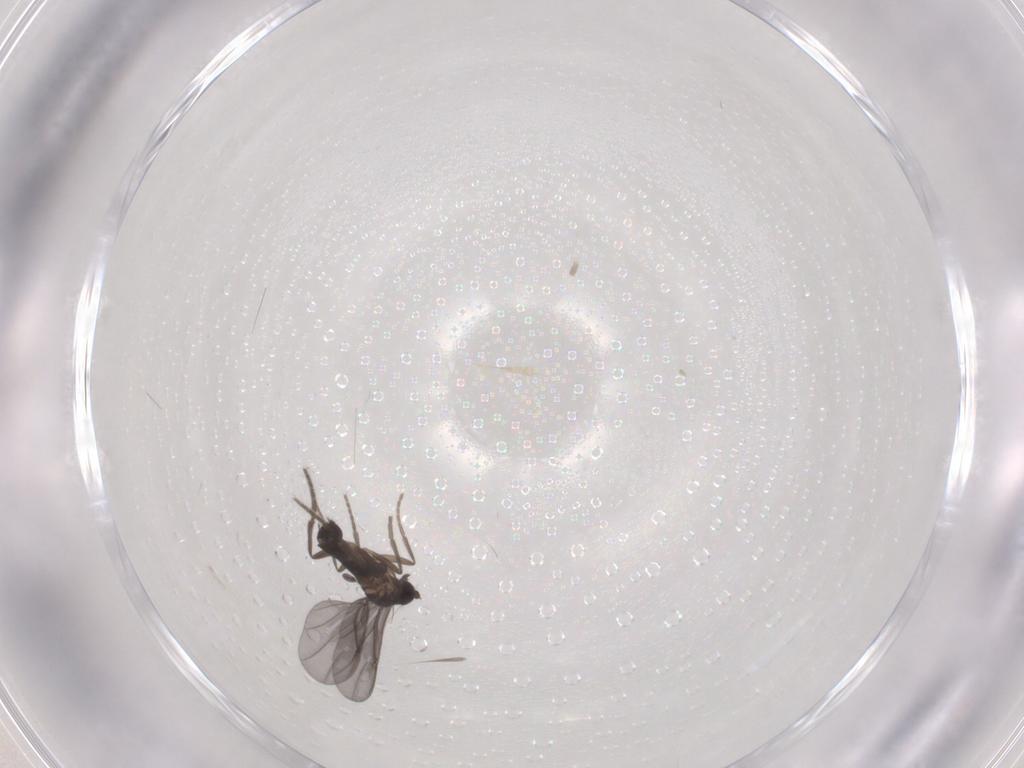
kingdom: Animalia
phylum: Arthropoda
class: Insecta
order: Diptera
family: Phoridae
